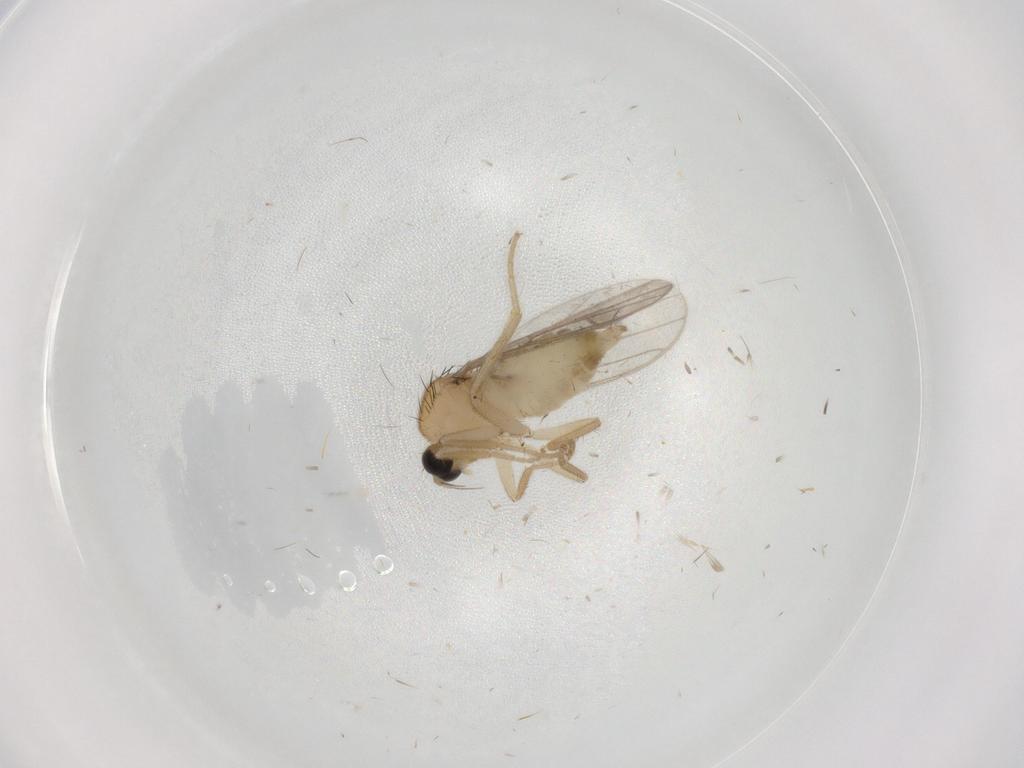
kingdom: Animalia
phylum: Arthropoda
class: Insecta
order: Diptera
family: Hybotidae
